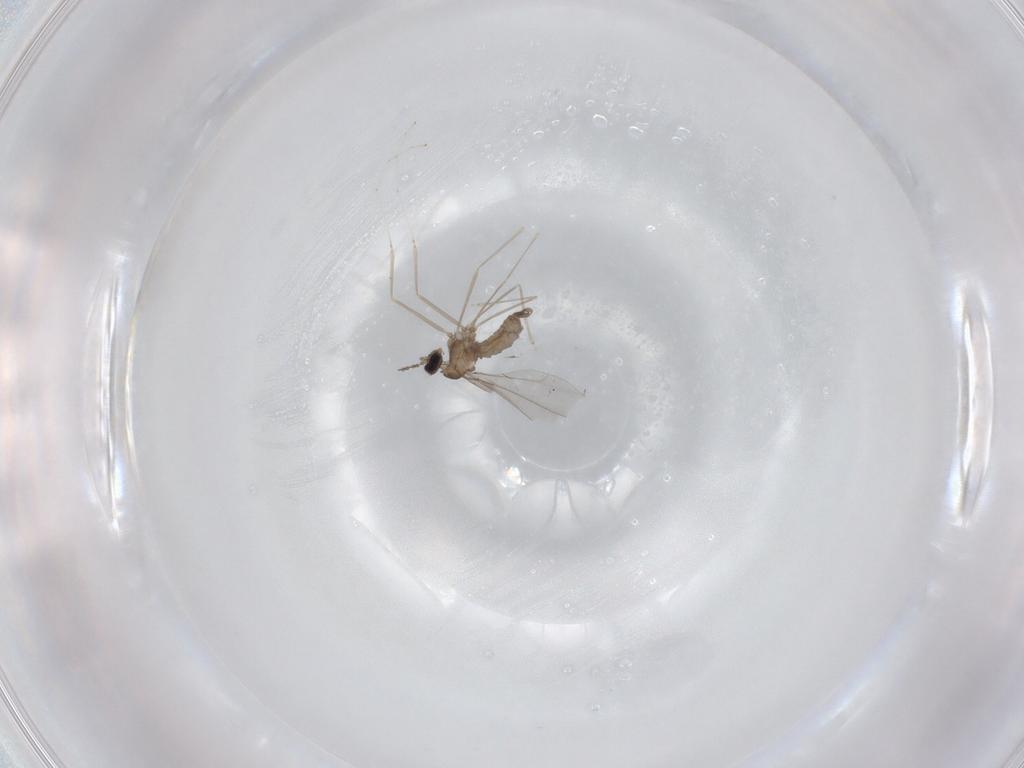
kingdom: Animalia
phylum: Arthropoda
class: Insecta
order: Diptera
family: Cecidomyiidae
